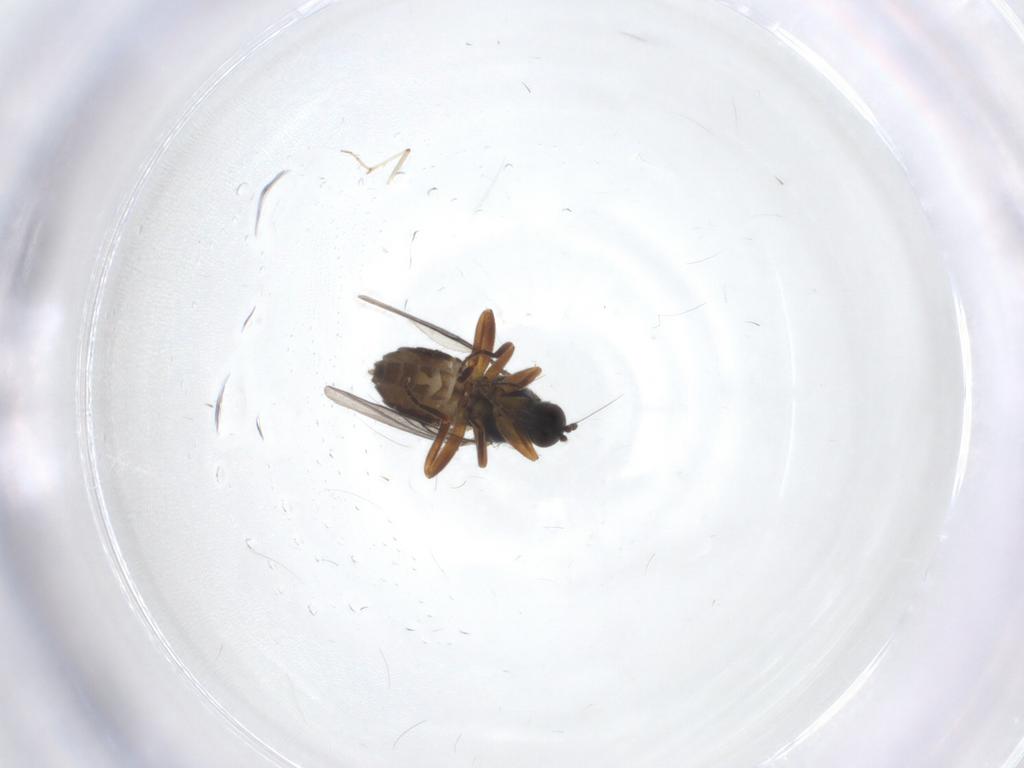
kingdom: Animalia
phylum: Arthropoda
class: Insecta
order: Diptera
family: Hybotidae
